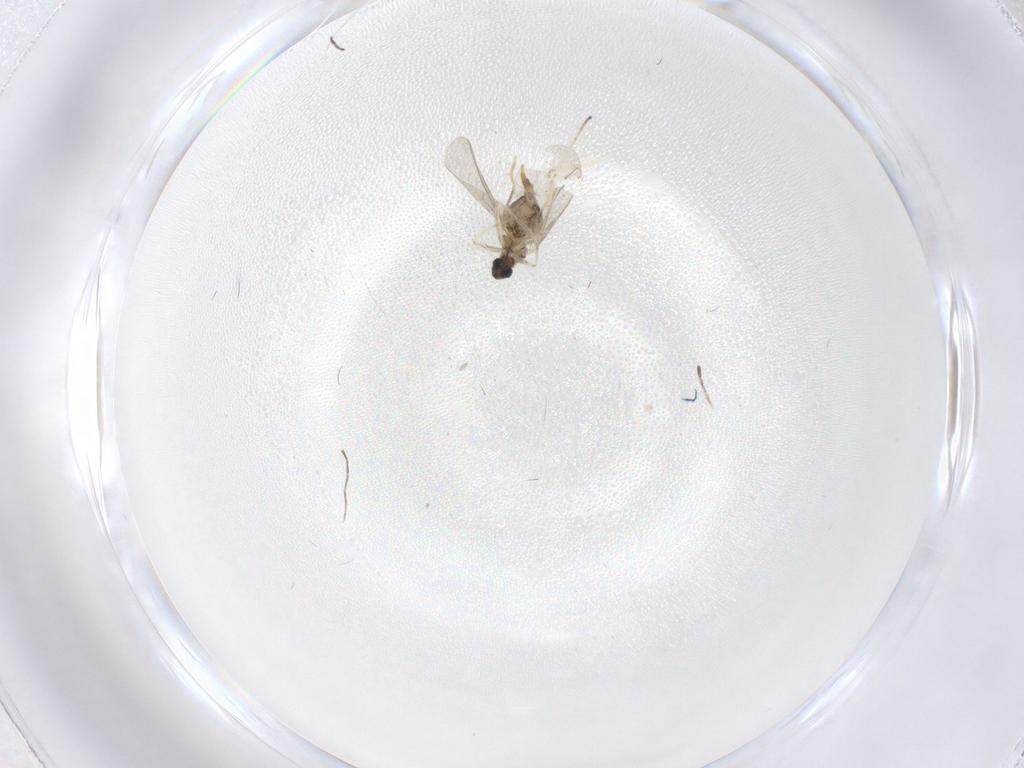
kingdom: Animalia
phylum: Arthropoda
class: Insecta
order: Diptera
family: Cecidomyiidae
